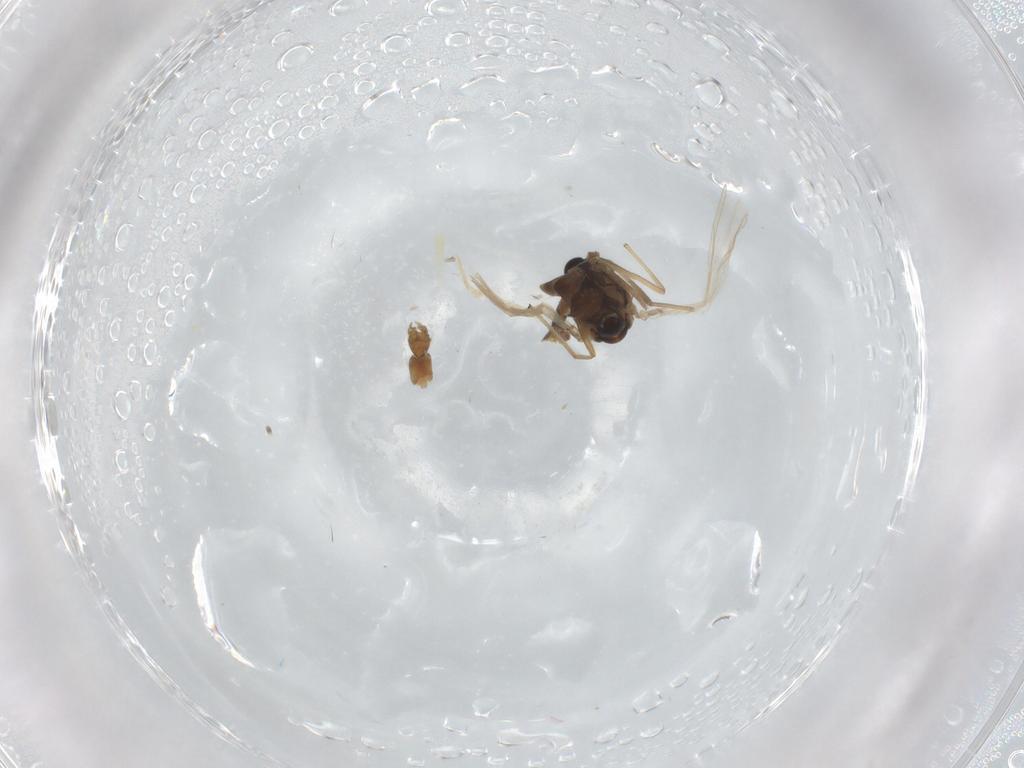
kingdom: Animalia
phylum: Arthropoda
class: Insecta
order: Diptera
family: Chironomidae
